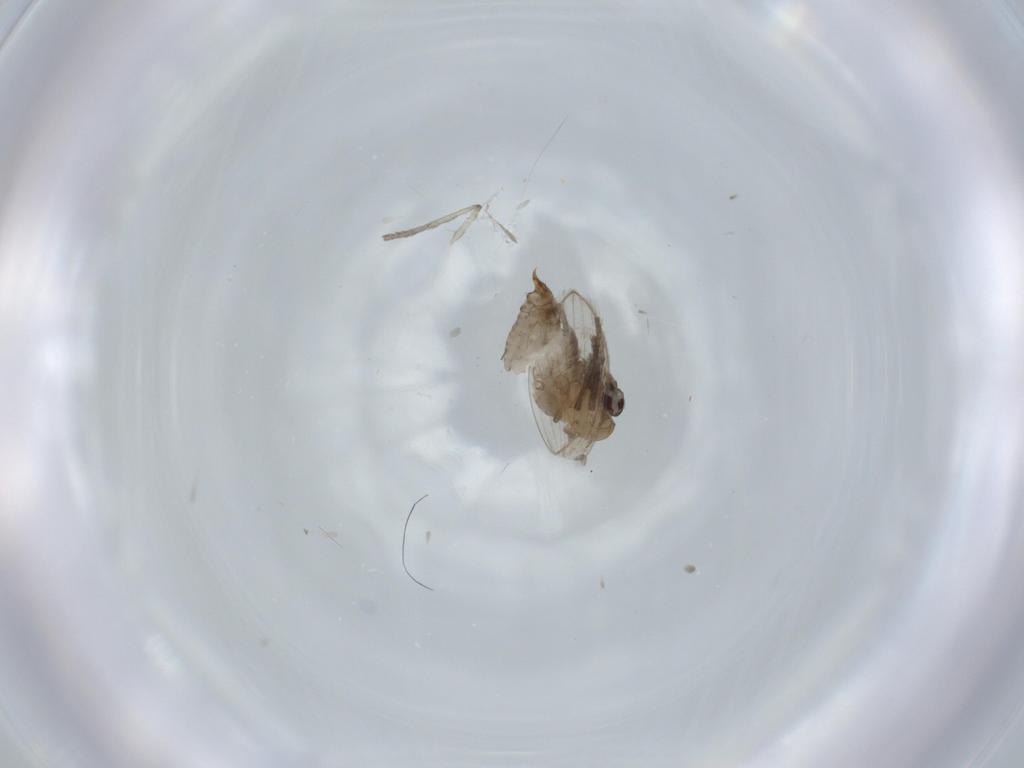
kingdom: Animalia
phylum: Arthropoda
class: Insecta
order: Diptera
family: Psychodidae
